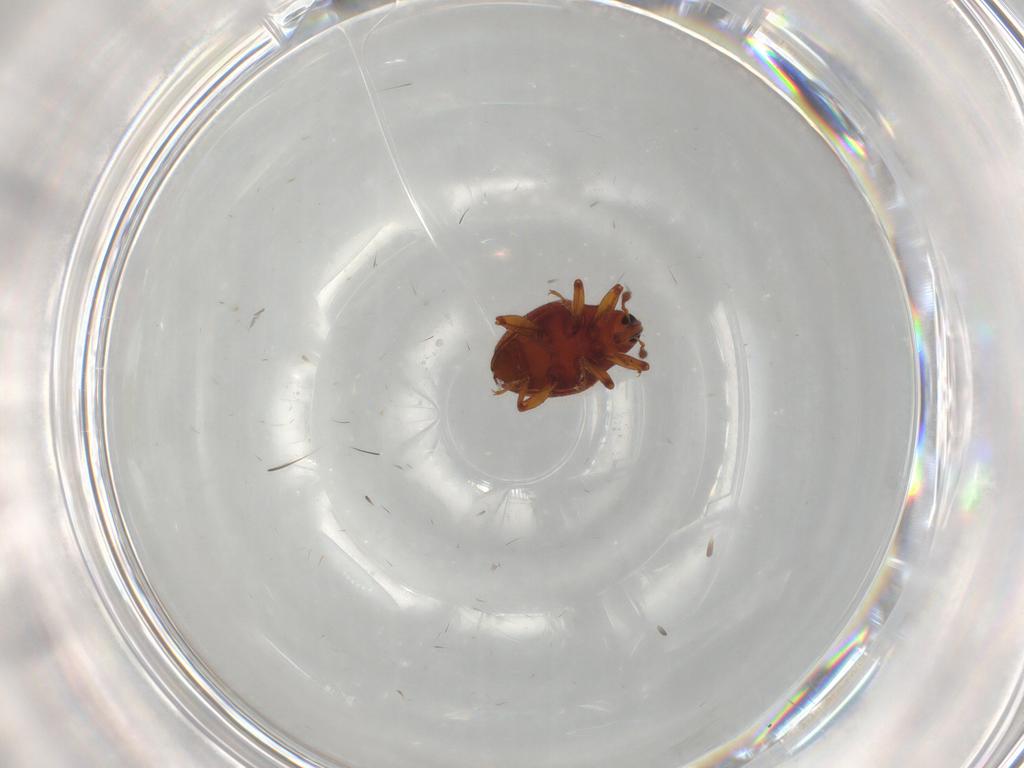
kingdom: Animalia
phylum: Arthropoda
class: Insecta
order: Coleoptera
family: Curculionidae
